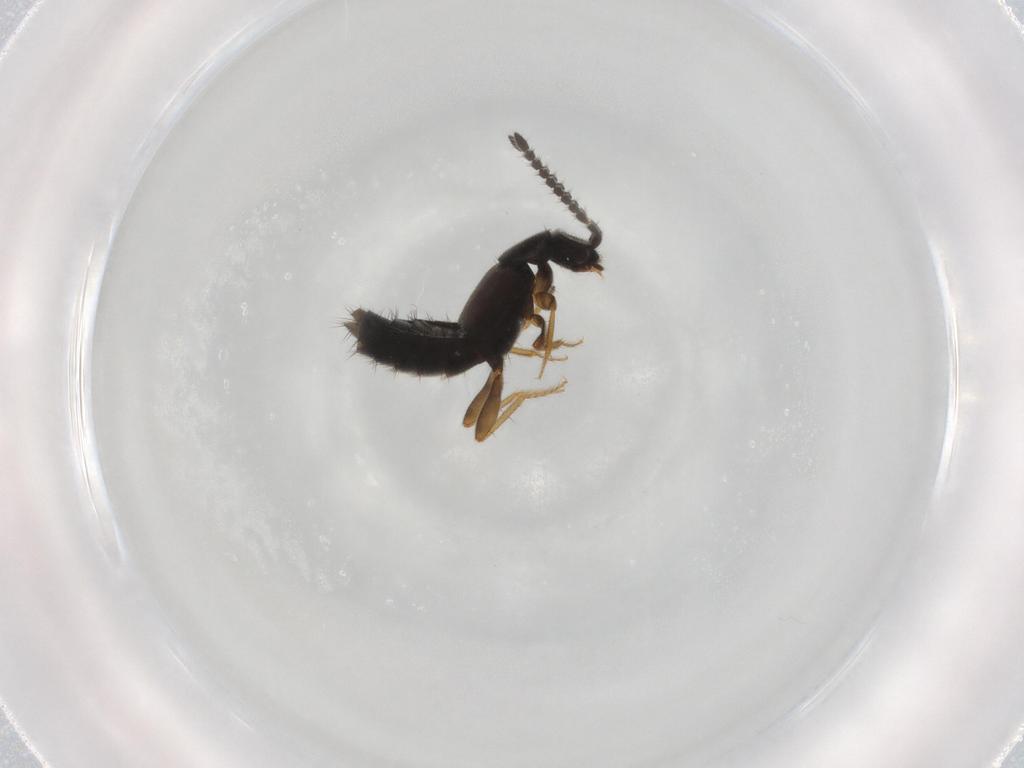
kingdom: Animalia
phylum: Arthropoda
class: Insecta
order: Coleoptera
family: Staphylinidae
